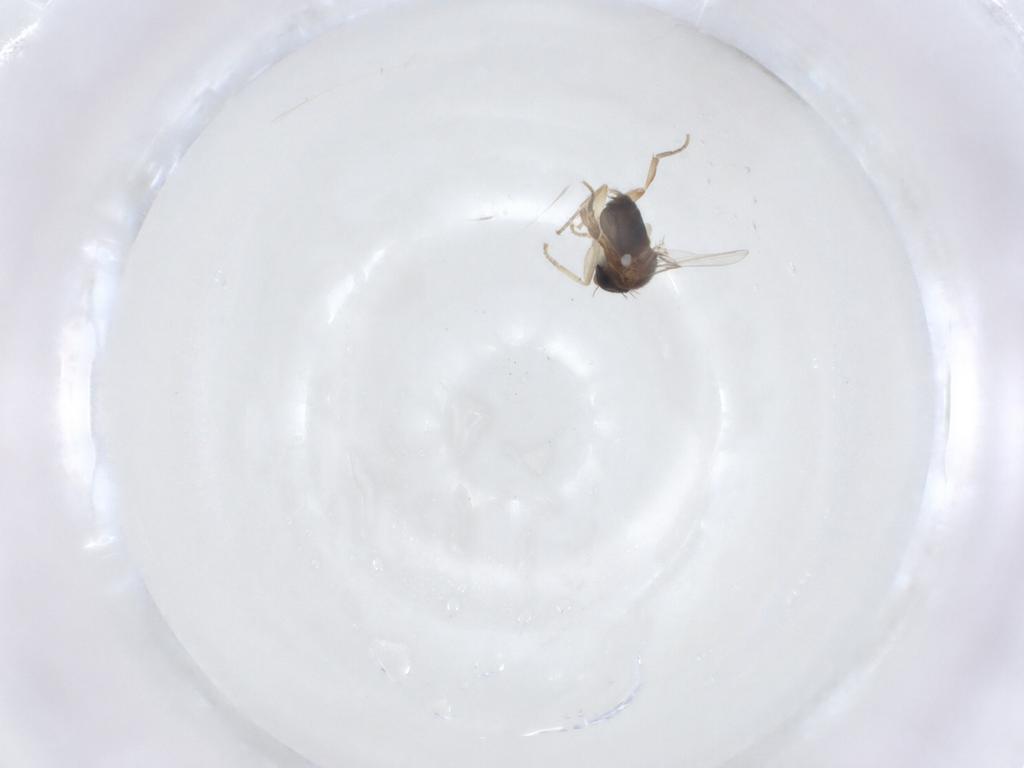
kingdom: Animalia
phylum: Arthropoda
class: Insecta
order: Diptera
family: Phoridae
